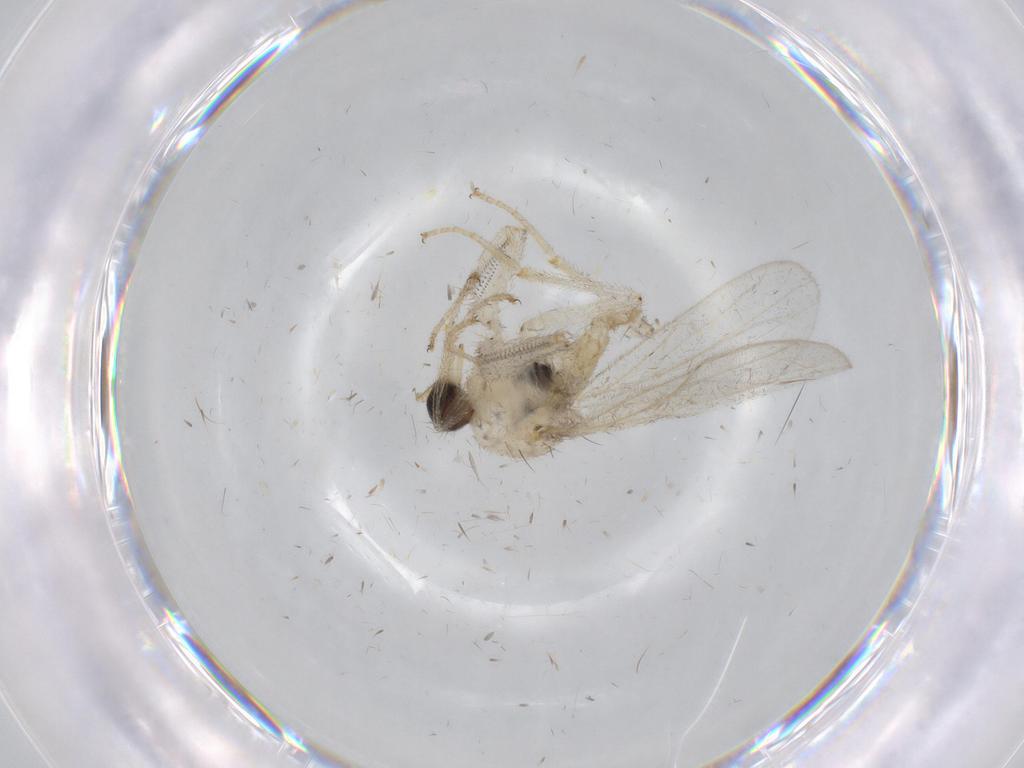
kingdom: Animalia
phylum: Arthropoda
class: Insecta
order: Diptera
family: Hybotidae
